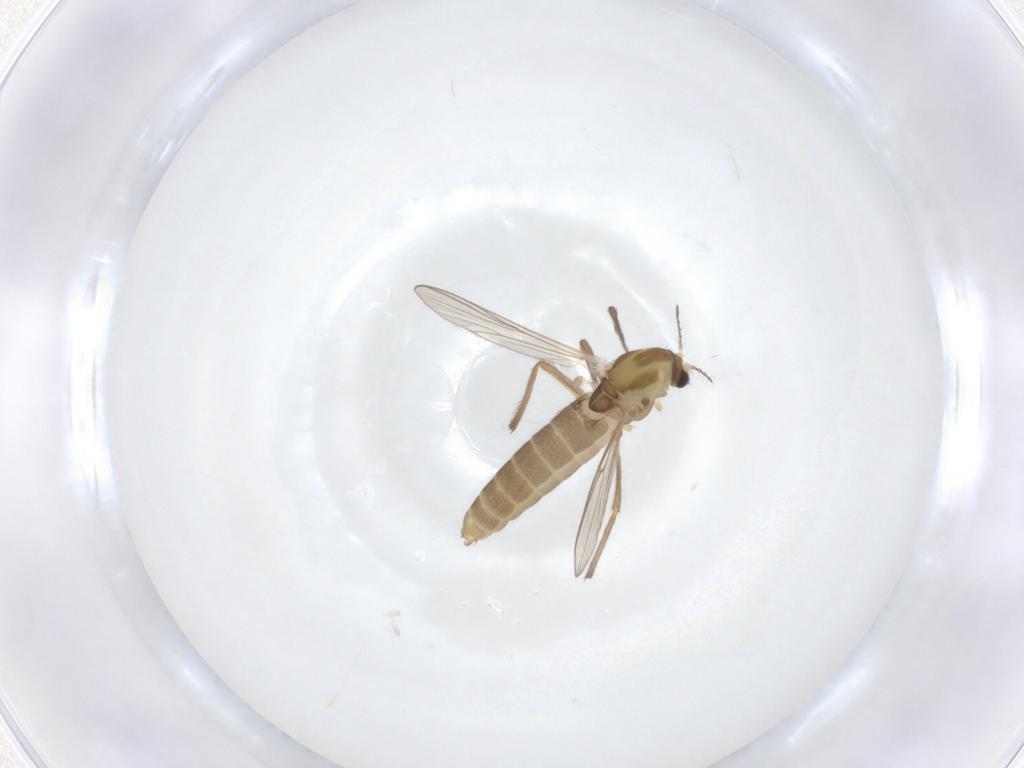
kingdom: Animalia
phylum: Arthropoda
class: Insecta
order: Diptera
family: Chironomidae
